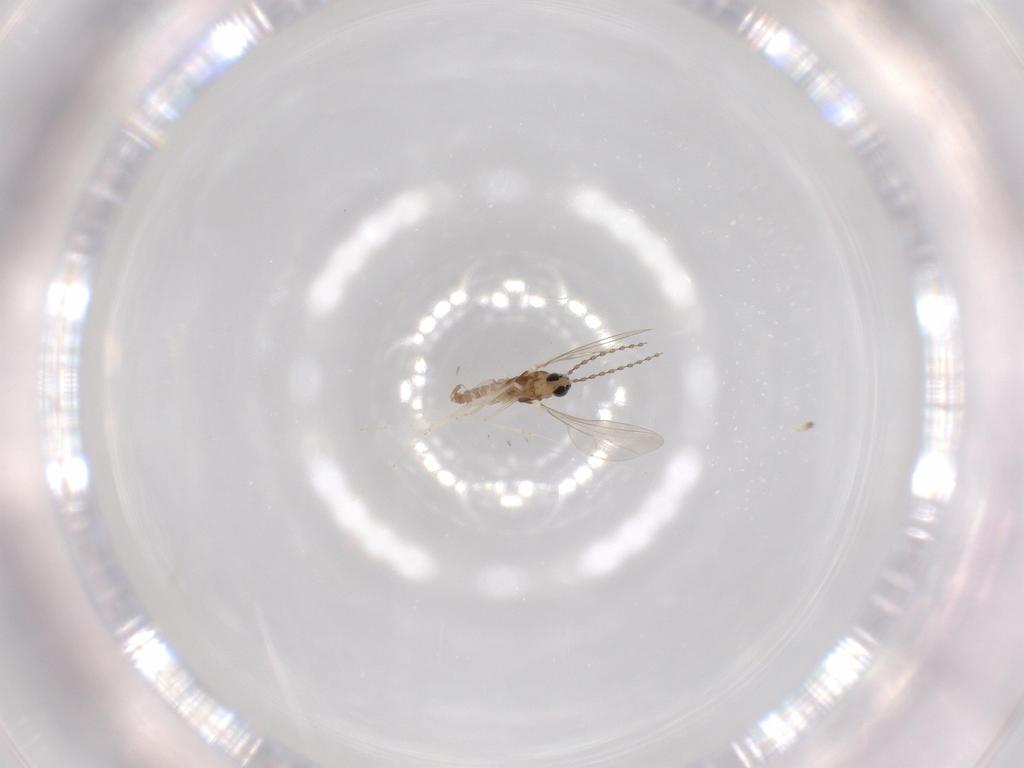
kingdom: Animalia
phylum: Arthropoda
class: Insecta
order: Diptera
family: Cecidomyiidae
